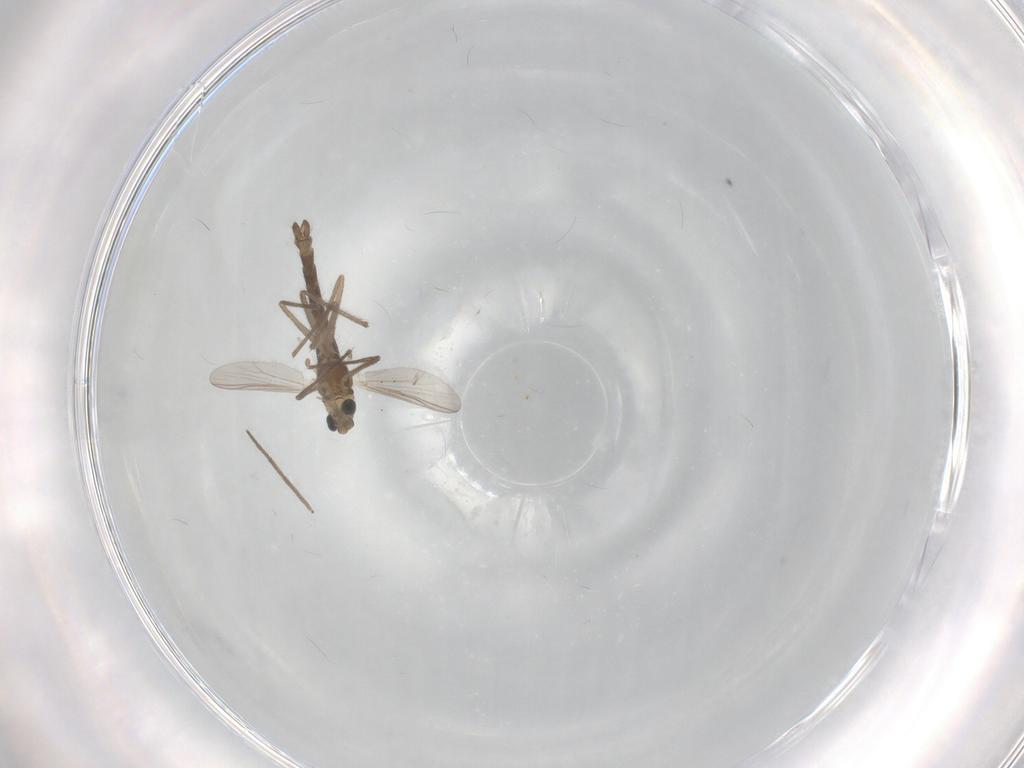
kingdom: Animalia
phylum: Arthropoda
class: Insecta
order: Diptera
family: Chironomidae
